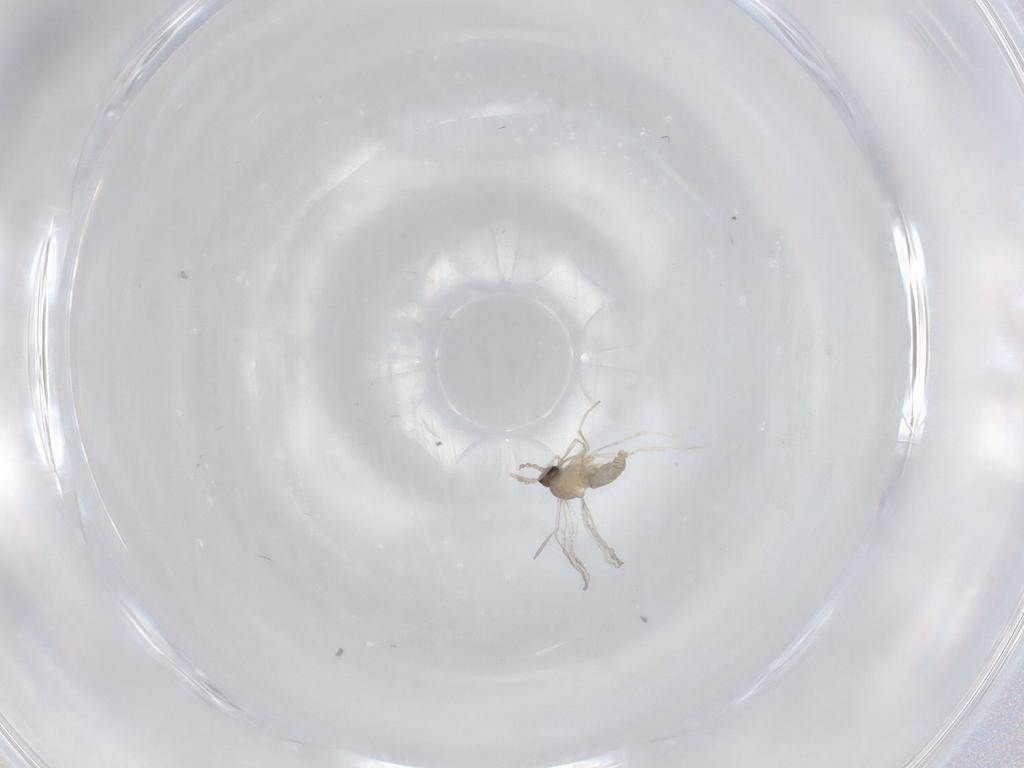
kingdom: Animalia
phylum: Arthropoda
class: Insecta
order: Diptera
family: Cecidomyiidae
